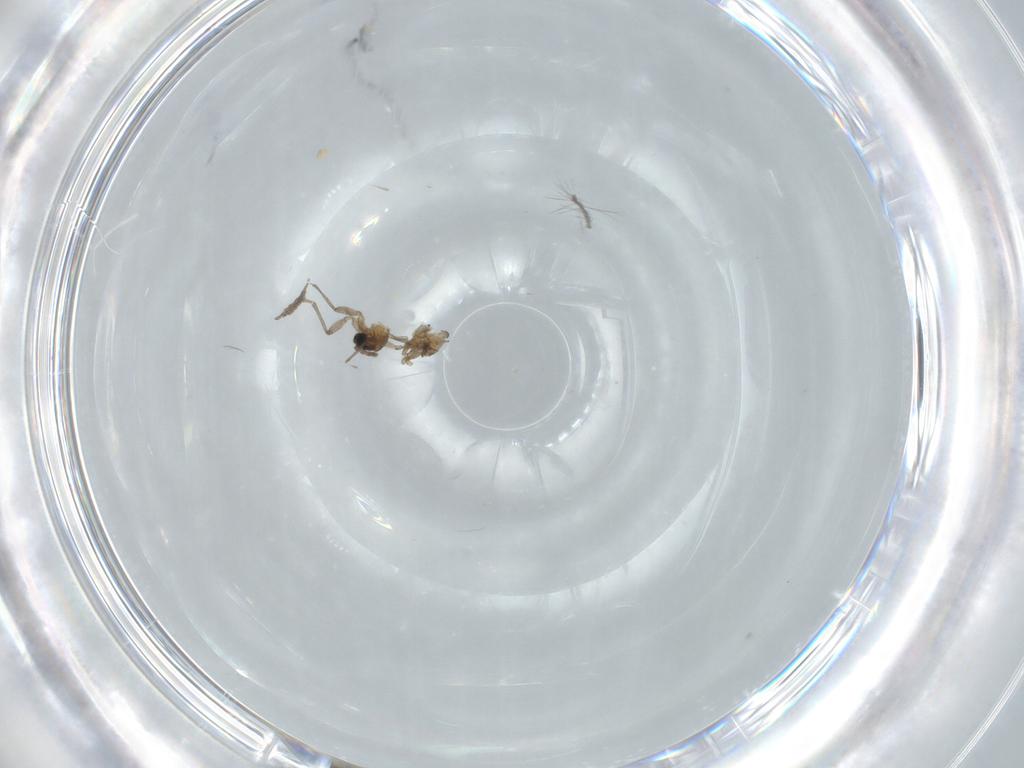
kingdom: Animalia
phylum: Arthropoda
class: Insecta
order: Diptera
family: Sciaridae
